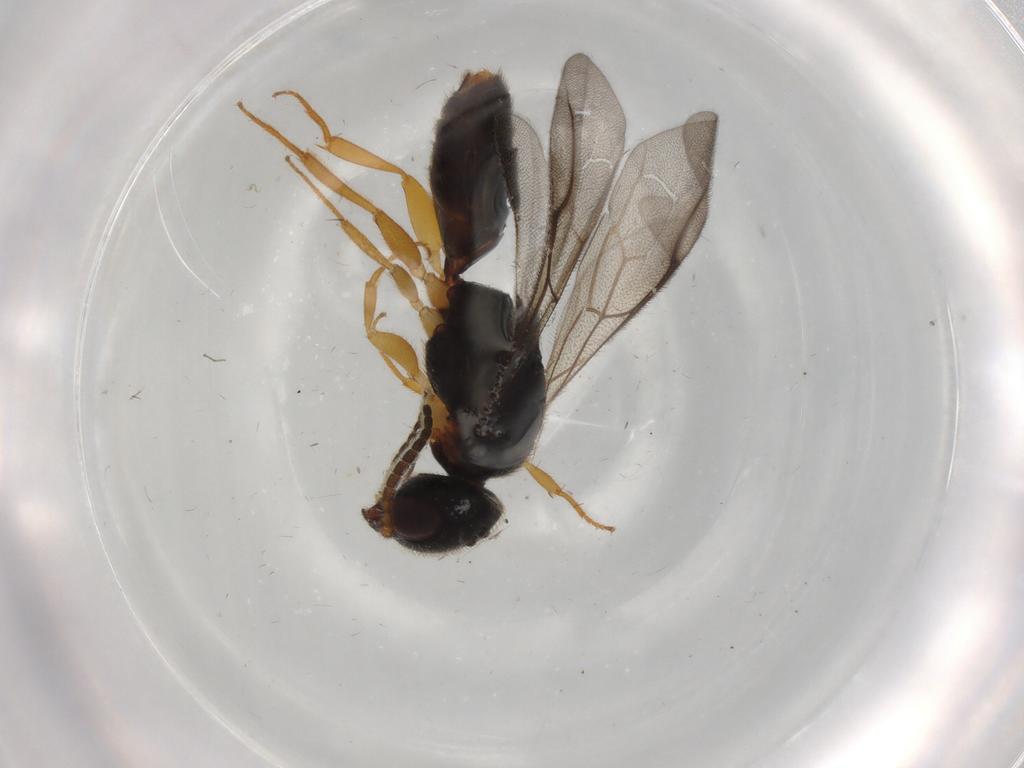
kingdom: Animalia
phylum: Arthropoda
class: Insecta
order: Hymenoptera
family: Bethylidae
